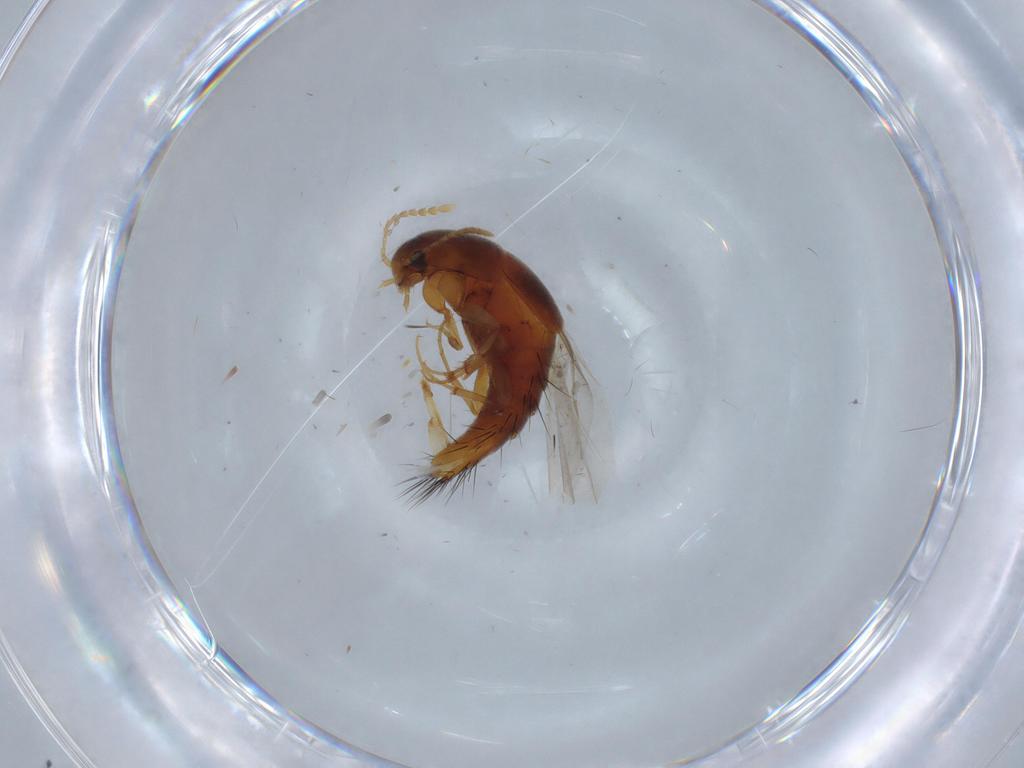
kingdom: Animalia
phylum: Arthropoda
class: Insecta
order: Coleoptera
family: Staphylinidae
